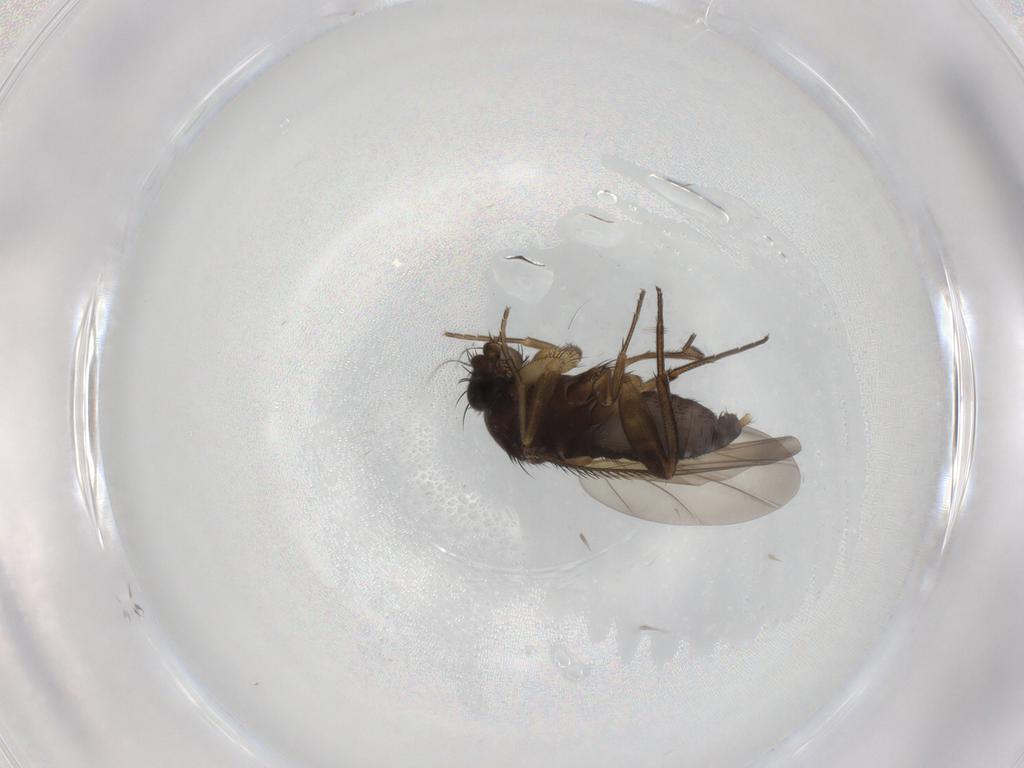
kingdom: Animalia
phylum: Arthropoda
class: Insecta
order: Diptera
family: Phoridae
